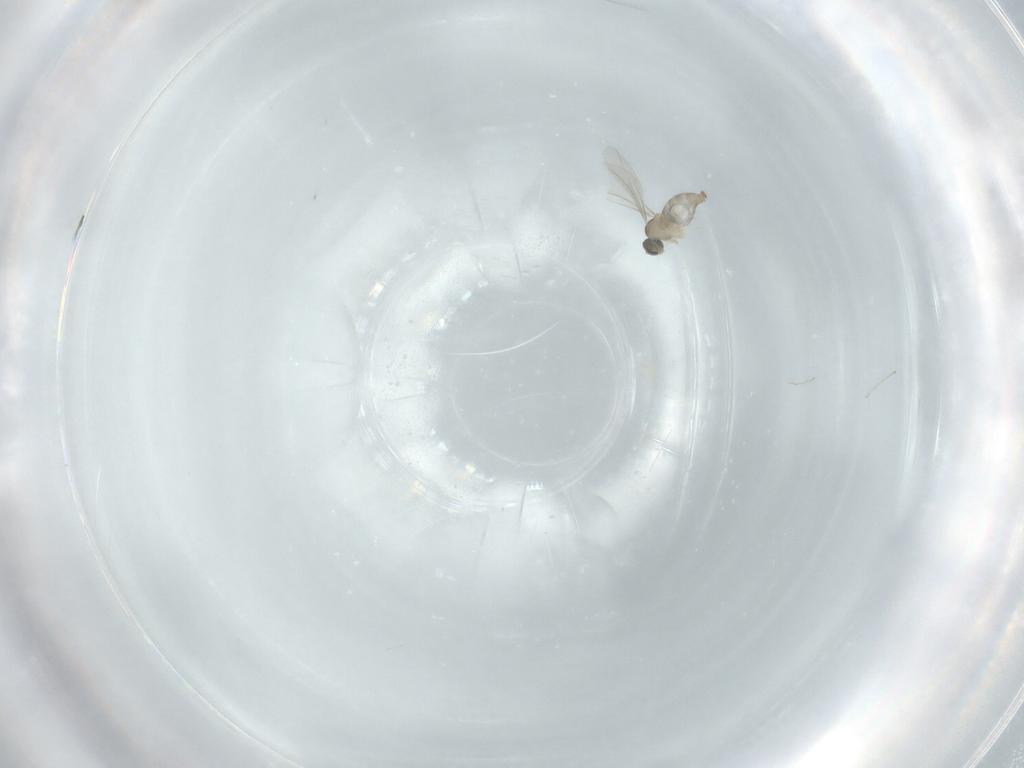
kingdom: Animalia
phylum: Arthropoda
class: Insecta
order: Diptera
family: Cecidomyiidae
